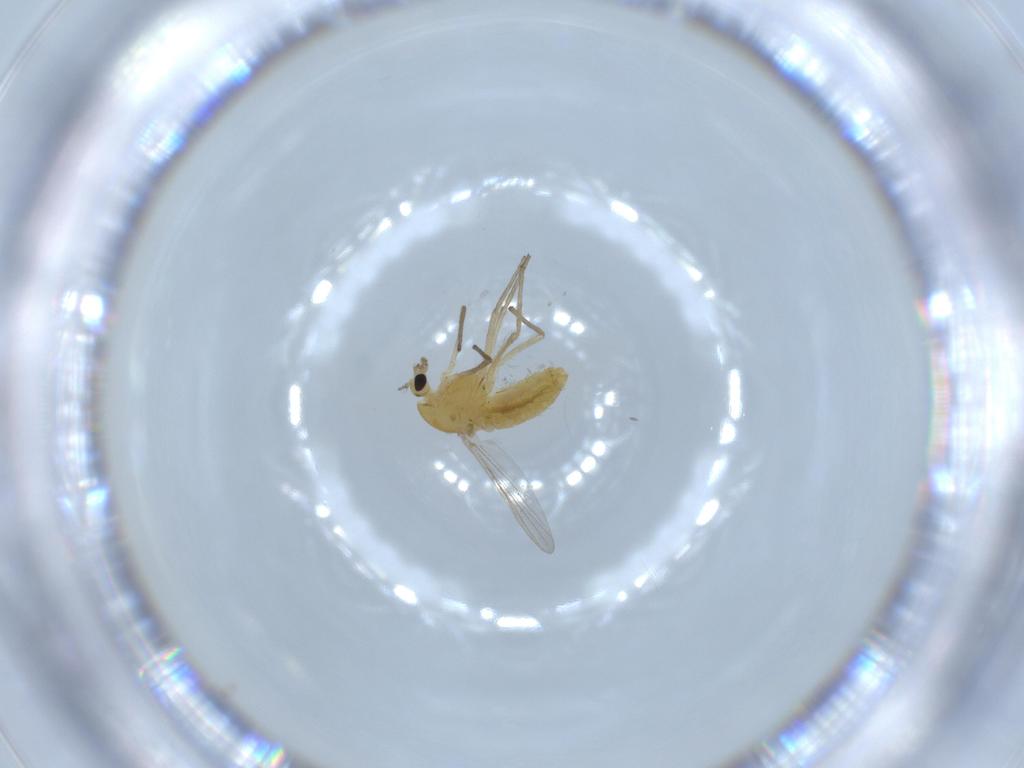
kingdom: Animalia
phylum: Arthropoda
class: Insecta
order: Diptera
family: Chironomidae
